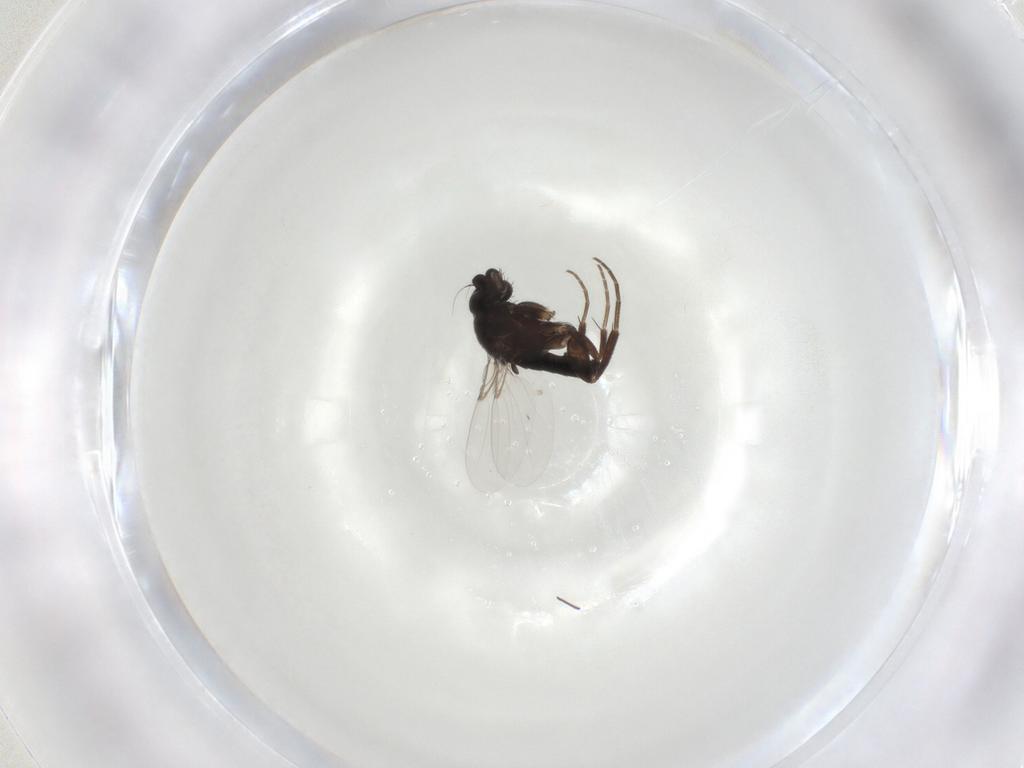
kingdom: Animalia
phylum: Arthropoda
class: Insecta
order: Diptera
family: Phoridae
